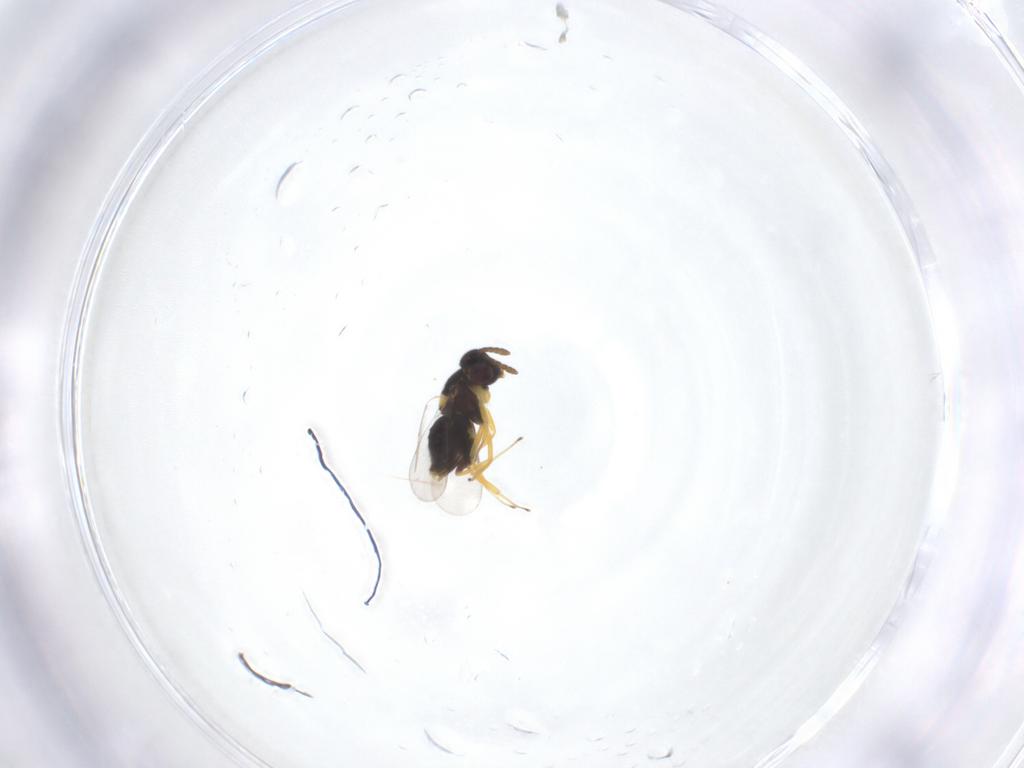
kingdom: Animalia
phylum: Arthropoda
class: Insecta
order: Hymenoptera
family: Aphelinidae
